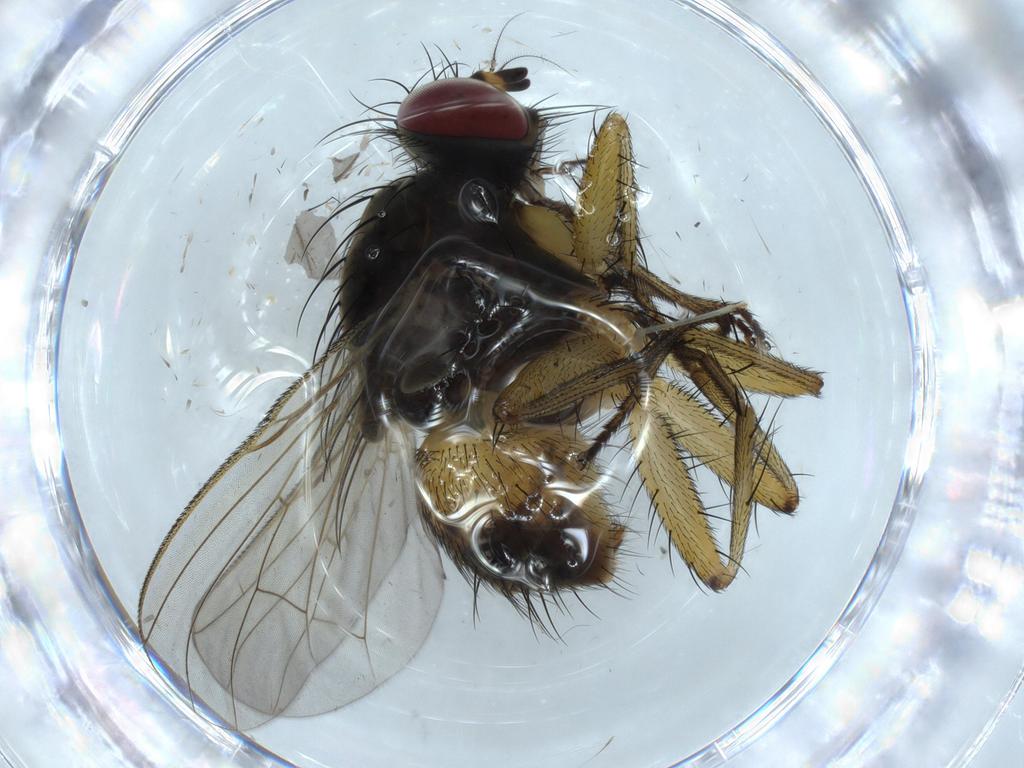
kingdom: Animalia
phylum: Arthropoda
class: Insecta
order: Diptera
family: Muscidae
